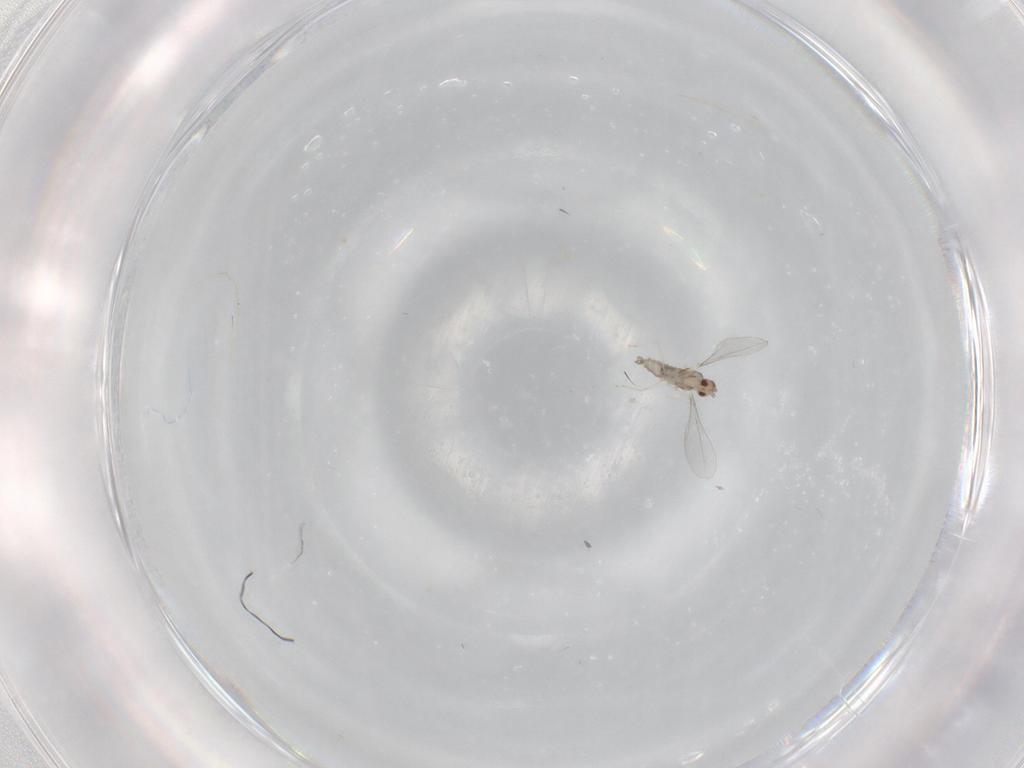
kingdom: Animalia
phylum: Arthropoda
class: Insecta
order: Diptera
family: Cecidomyiidae
